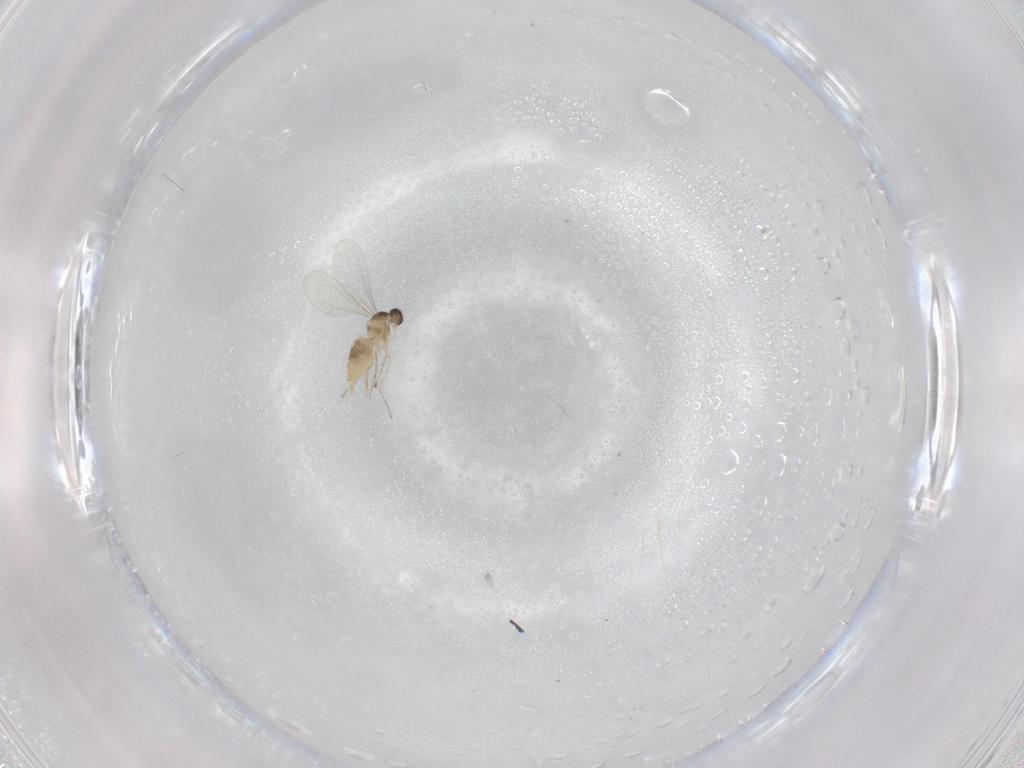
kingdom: Animalia
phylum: Arthropoda
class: Insecta
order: Diptera
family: Cecidomyiidae
